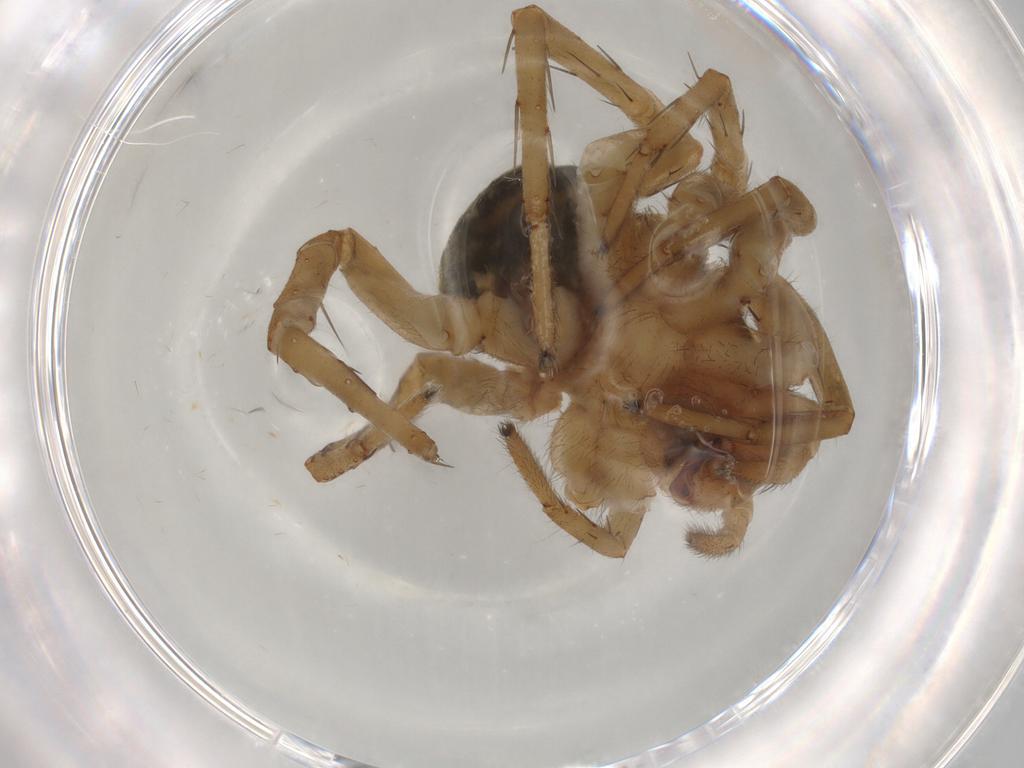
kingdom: Animalia
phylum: Arthropoda
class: Arachnida
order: Araneae
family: Lycosidae
